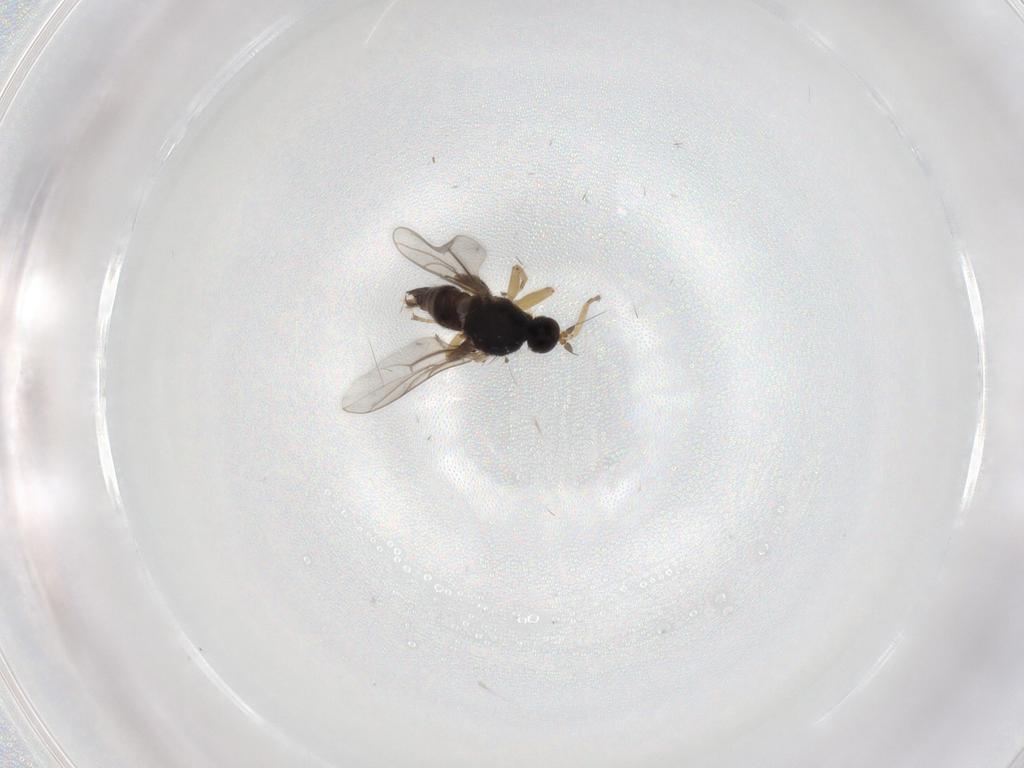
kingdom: Animalia
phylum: Arthropoda
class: Insecta
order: Diptera
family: Hybotidae
